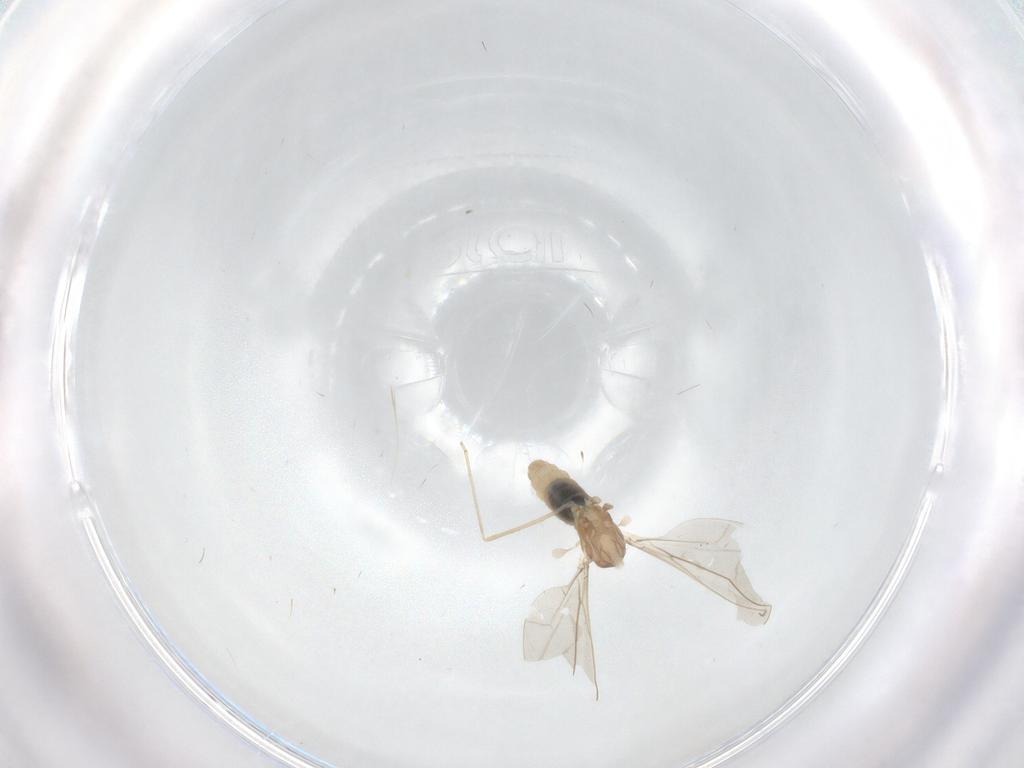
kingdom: Animalia
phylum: Arthropoda
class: Insecta
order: Diptera
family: Cecidomyiidae
